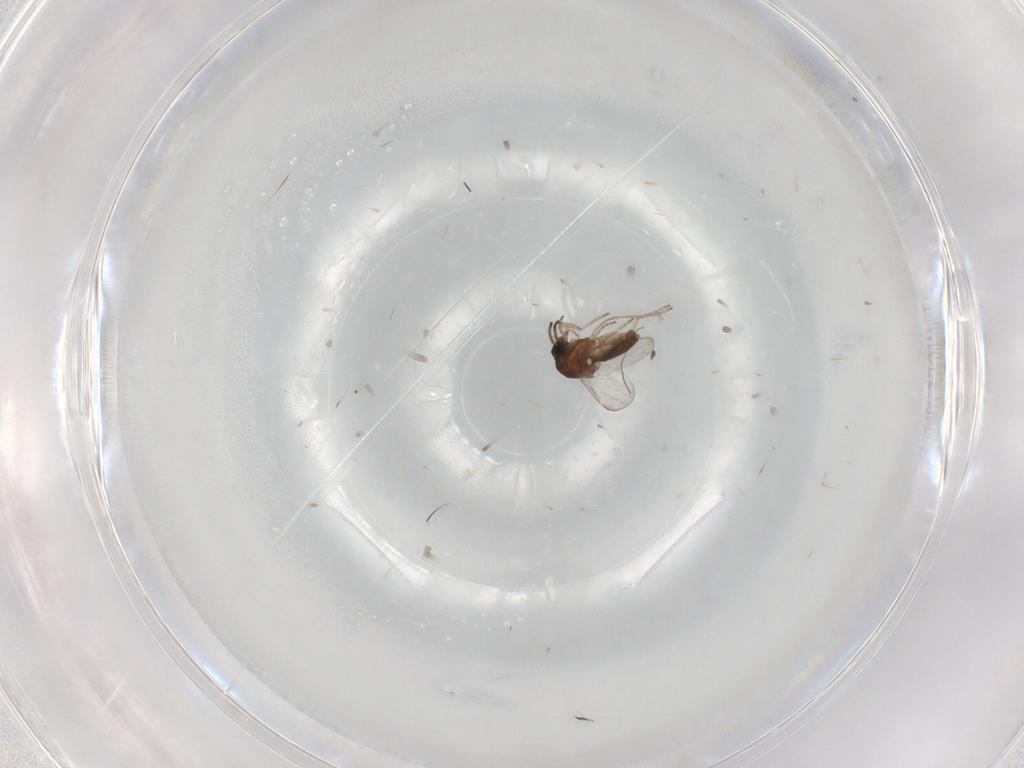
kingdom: Animalia
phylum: Arthropoda
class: Insecta
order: Diptera
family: Ceratopogonidae
